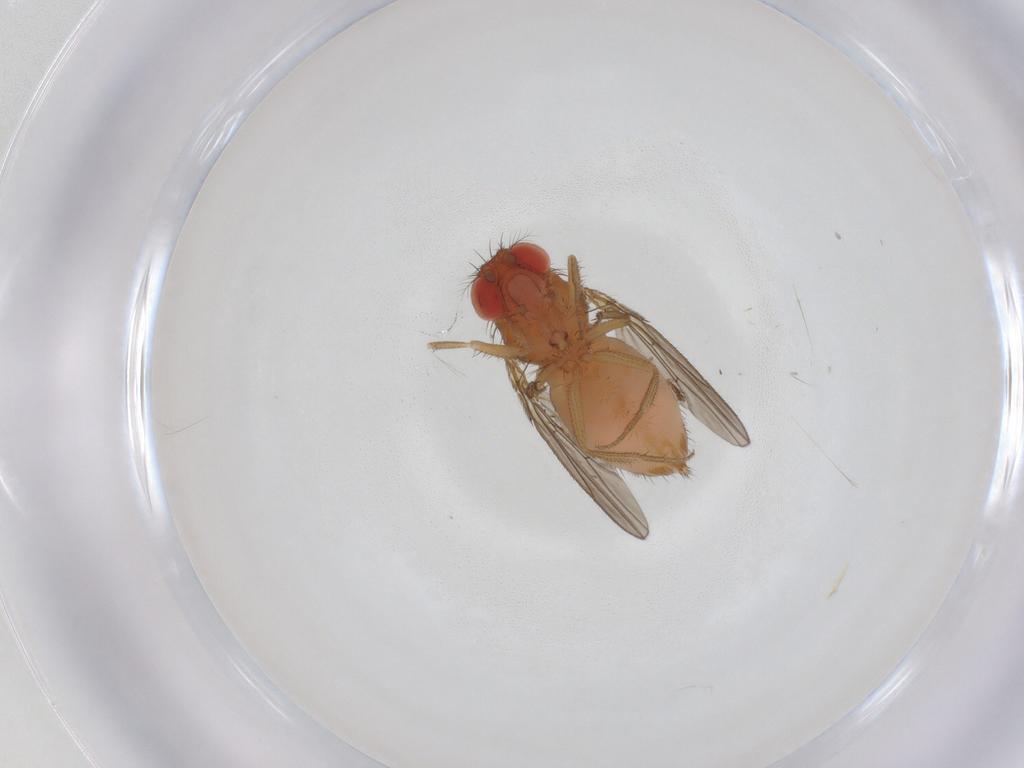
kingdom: Animalia
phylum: Arthropoda
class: Insecta
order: Diptera
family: Drosophilidae
